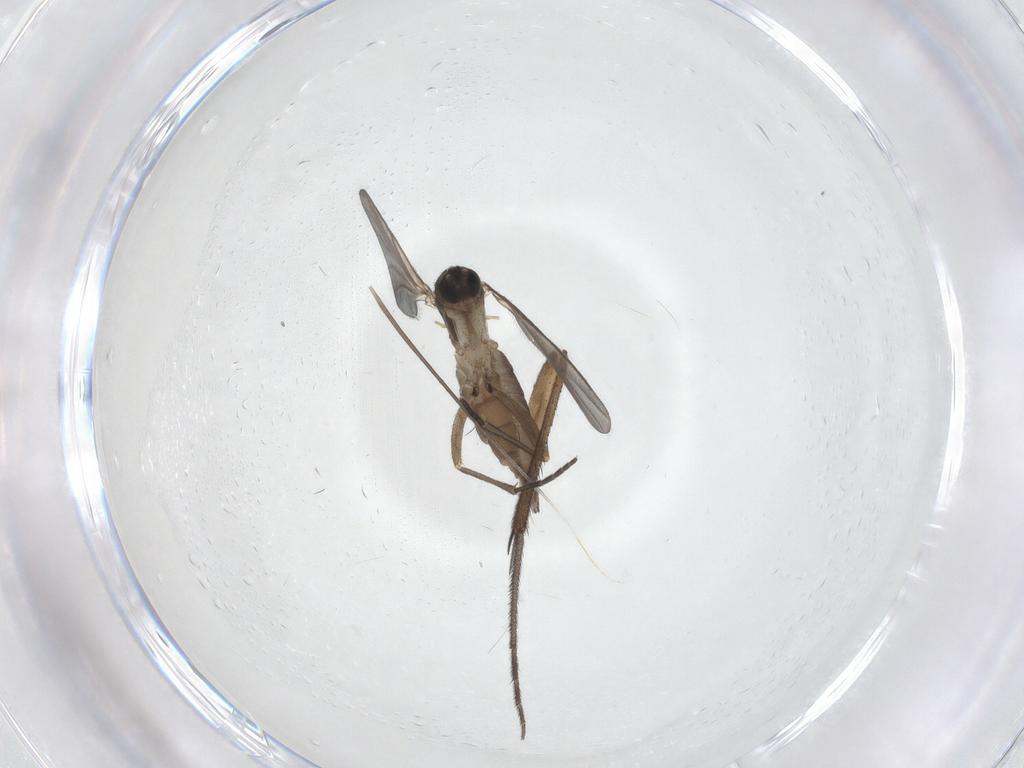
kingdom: Animalia
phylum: Arthropoda
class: Insecta
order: Diptera
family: Sciaridae
